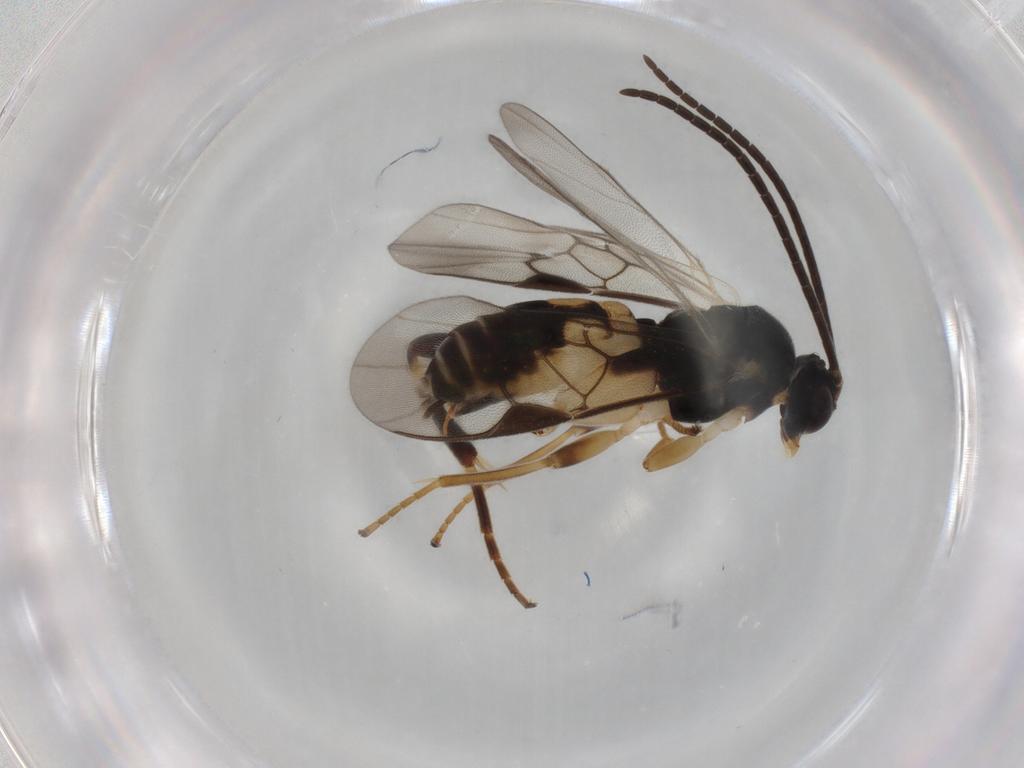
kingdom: Animalia
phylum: Arthropoda
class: Insecta
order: Hymenoptera
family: Braconidae
